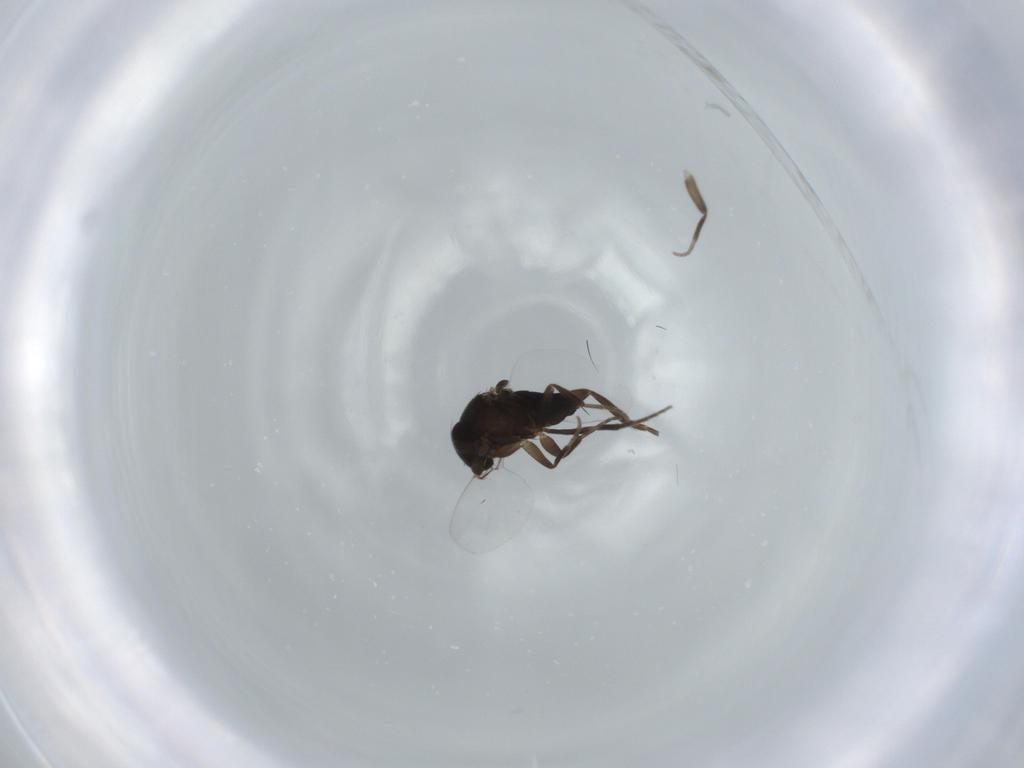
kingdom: Animalia
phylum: Arthropoda
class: Insecta
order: Diptera
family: Phoridae
